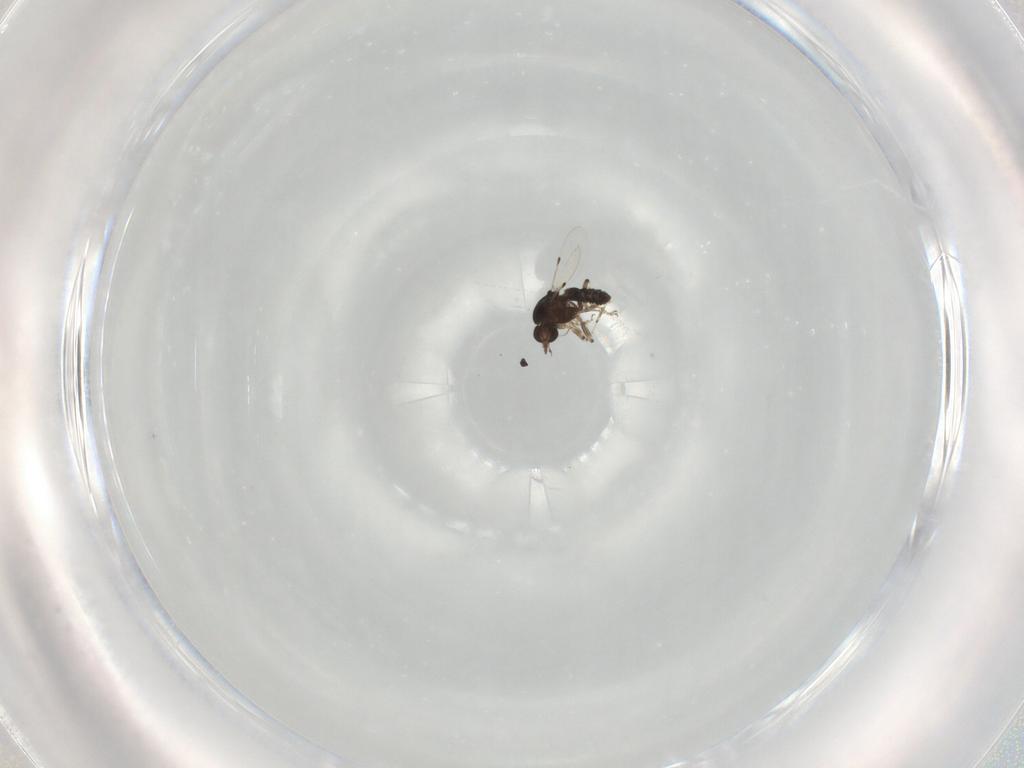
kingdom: Animalia
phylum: Arthropoda
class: Insecta
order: Diptera
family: Ceratopogonidae
